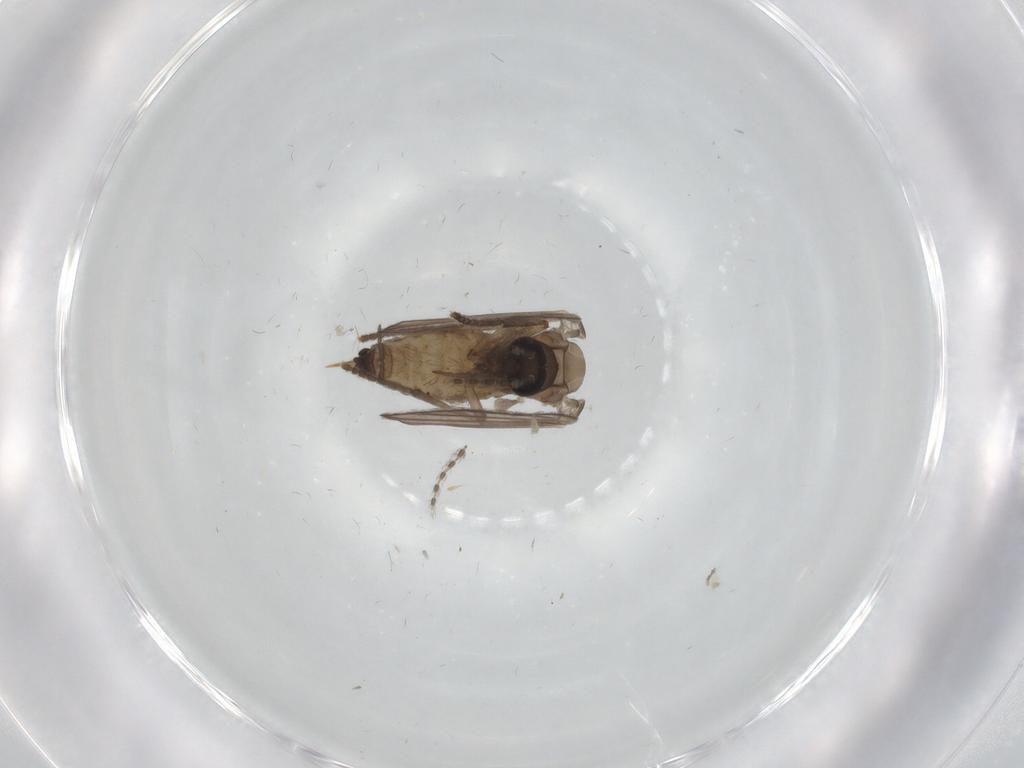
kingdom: Animalia
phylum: Arthropoda
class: Insecta
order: Diptera
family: Psychodidae
